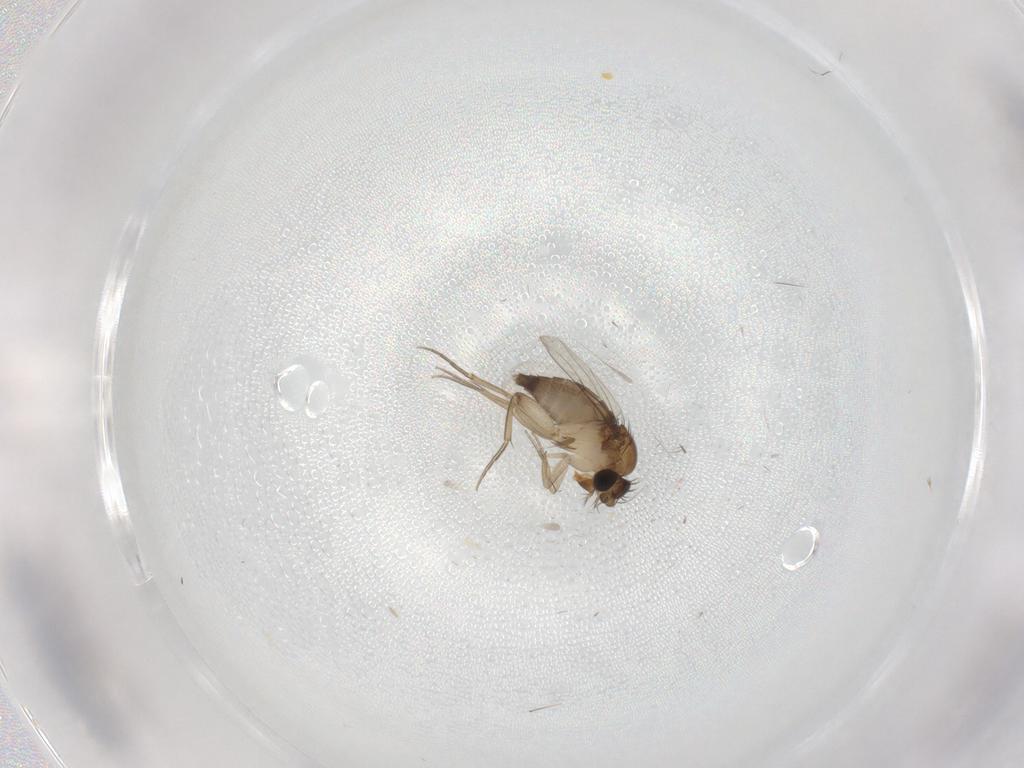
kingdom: Animalia
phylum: Arthropoda
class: Insecta
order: Diptera
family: Phoridae
